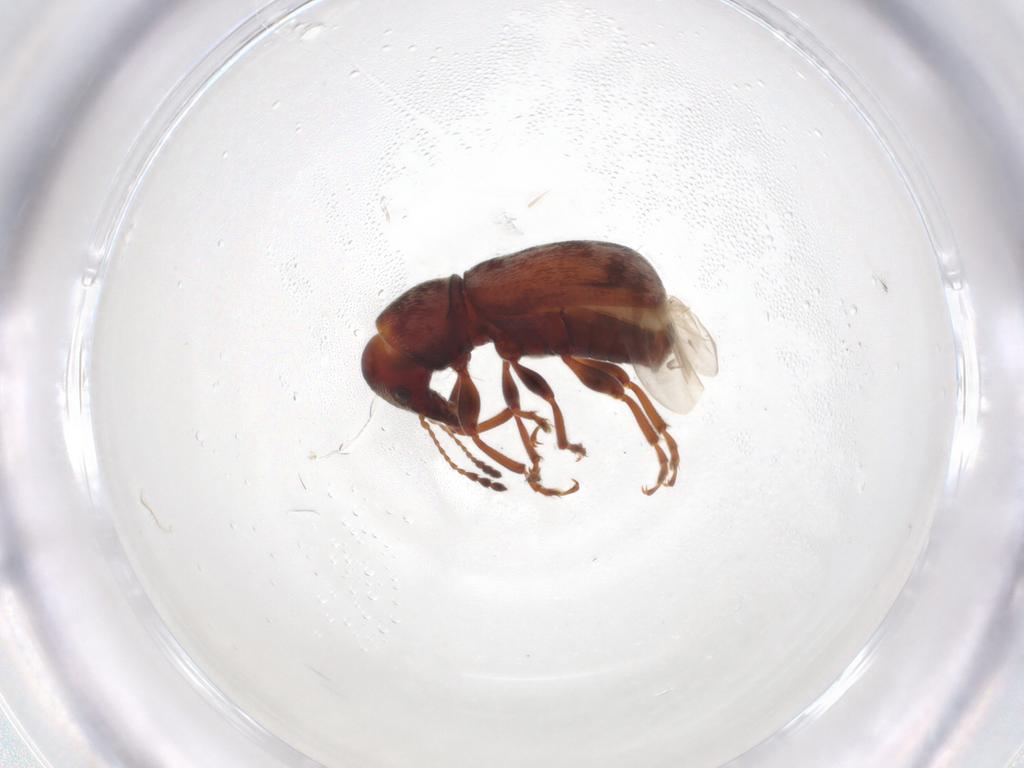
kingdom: Animalia
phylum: Arthropoda
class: Insecta
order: Coleoptera
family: Anthribidae
